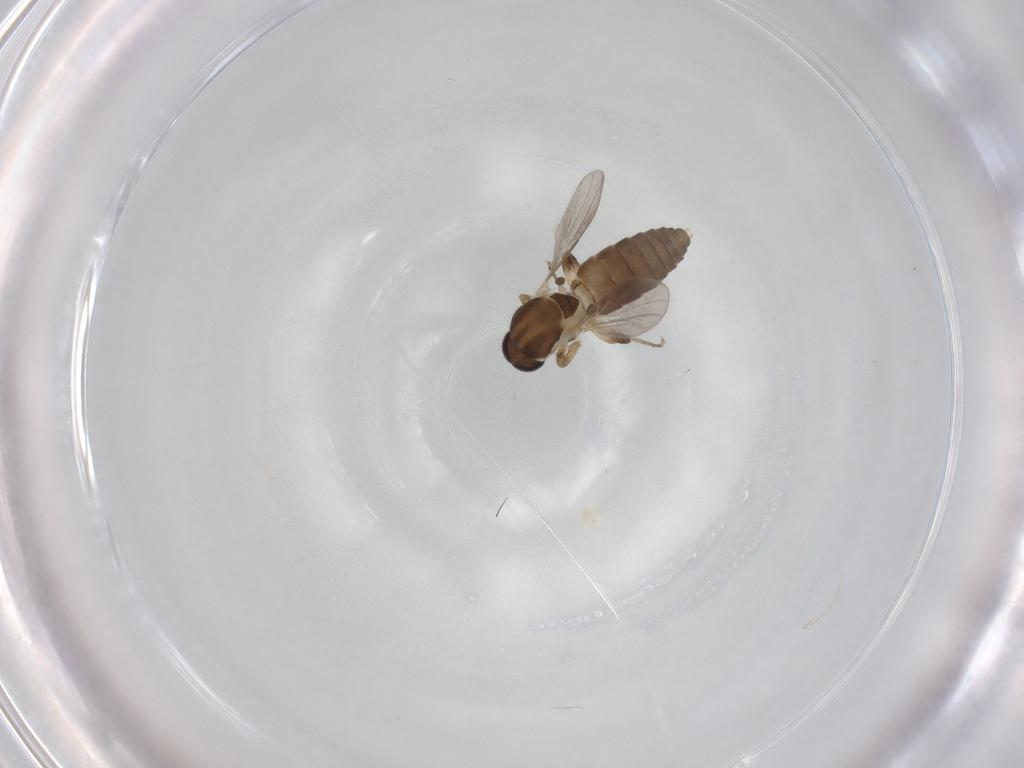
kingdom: Animalia
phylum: Arthropoda
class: Insecta
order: Diptera
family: Ceratopogonidae
